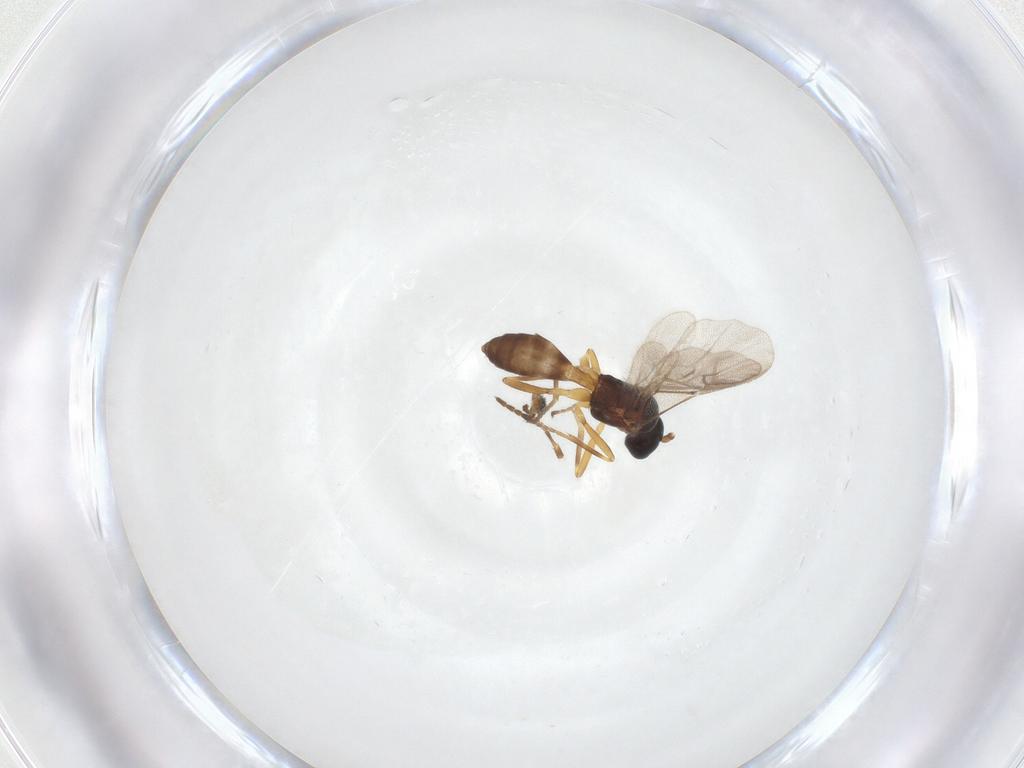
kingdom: Animalia
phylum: Arthropoda
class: Insecta
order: Hymenoptera
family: Braconidae
